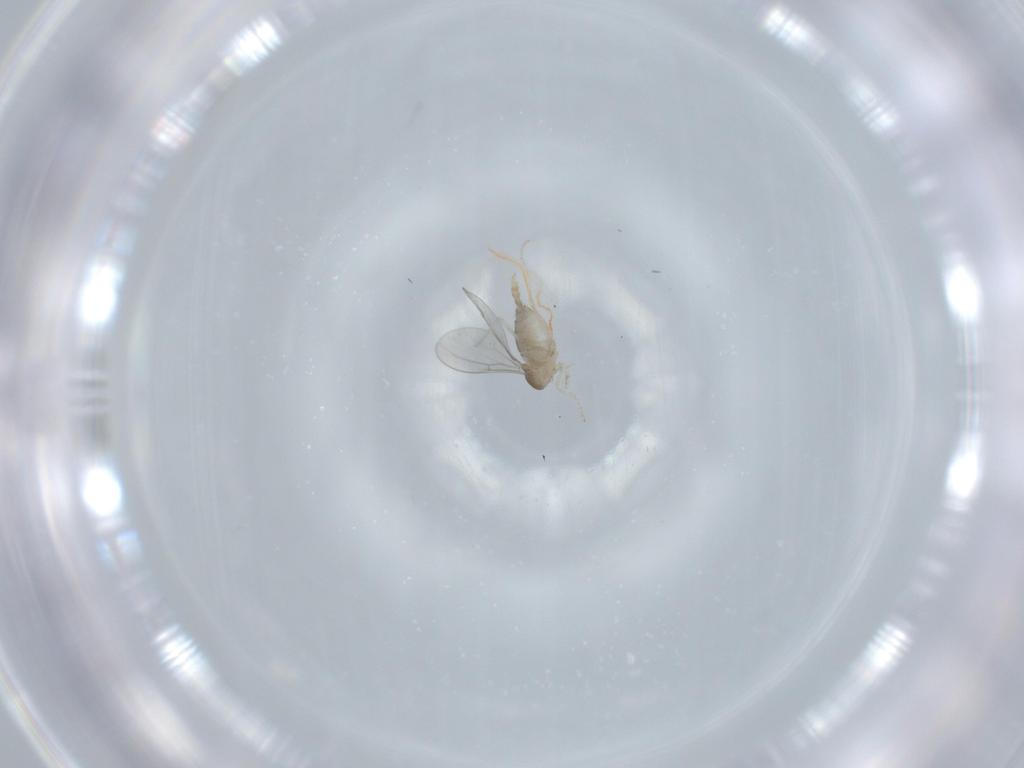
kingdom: Animalia
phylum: Arthropoda
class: Insecta
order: Diptera
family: Cecidomyiidae
